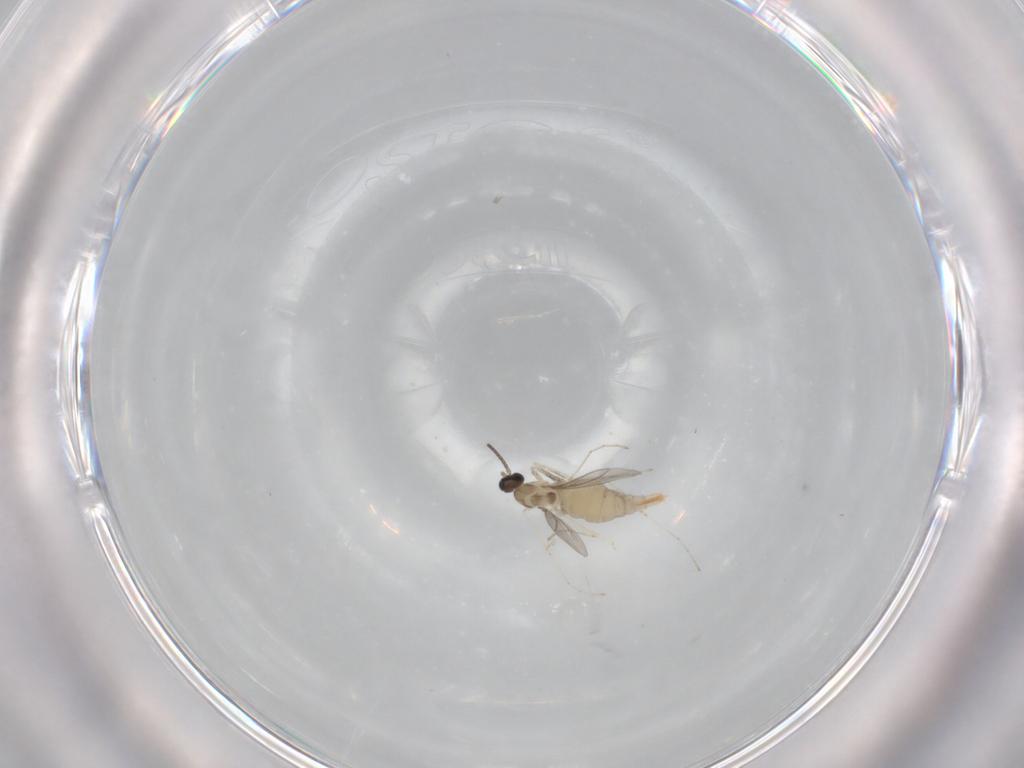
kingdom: Animalia
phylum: Arthropoda
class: Insecta
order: Diptera
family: Cecidomyiidae
